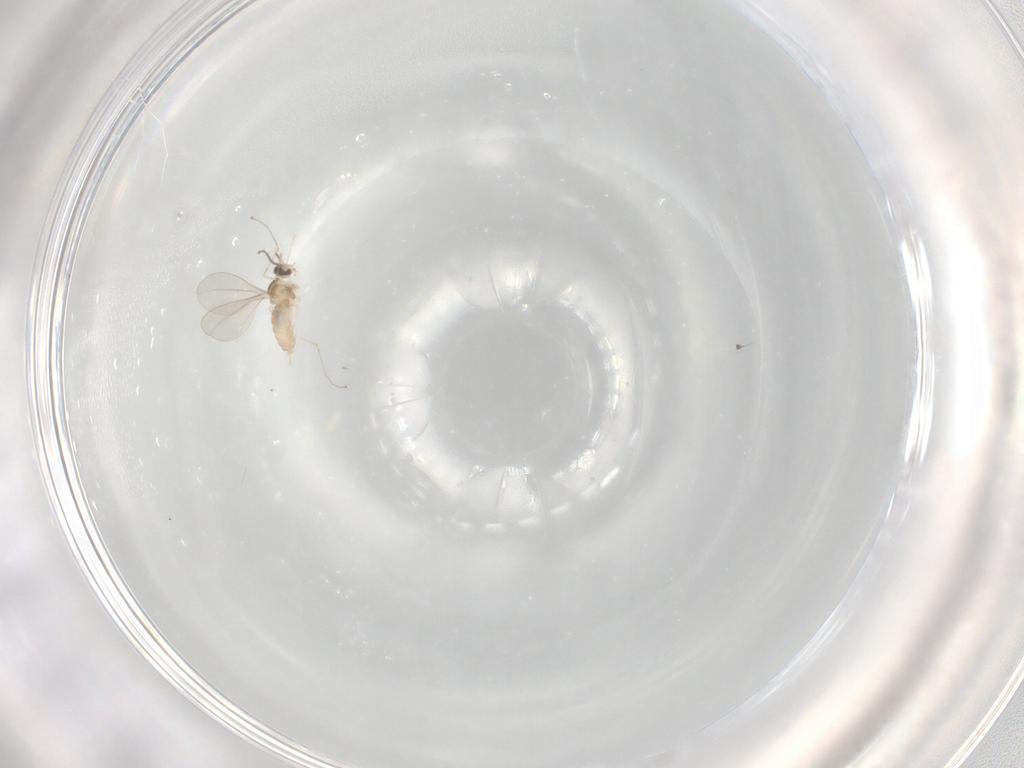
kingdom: Animalia
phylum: Arthropoda
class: Insecta
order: Diptera
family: Cecidomyiidae
